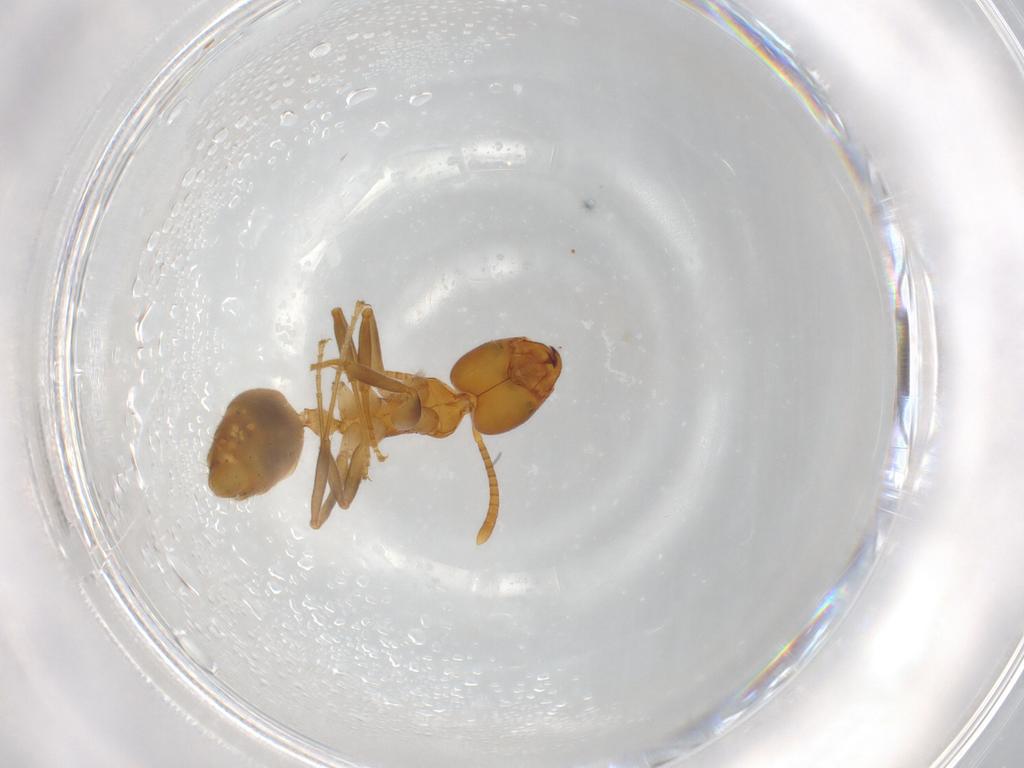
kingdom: Animalia
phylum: Arthropoda
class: Insecta
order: Hymenoptera
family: Formicidae
